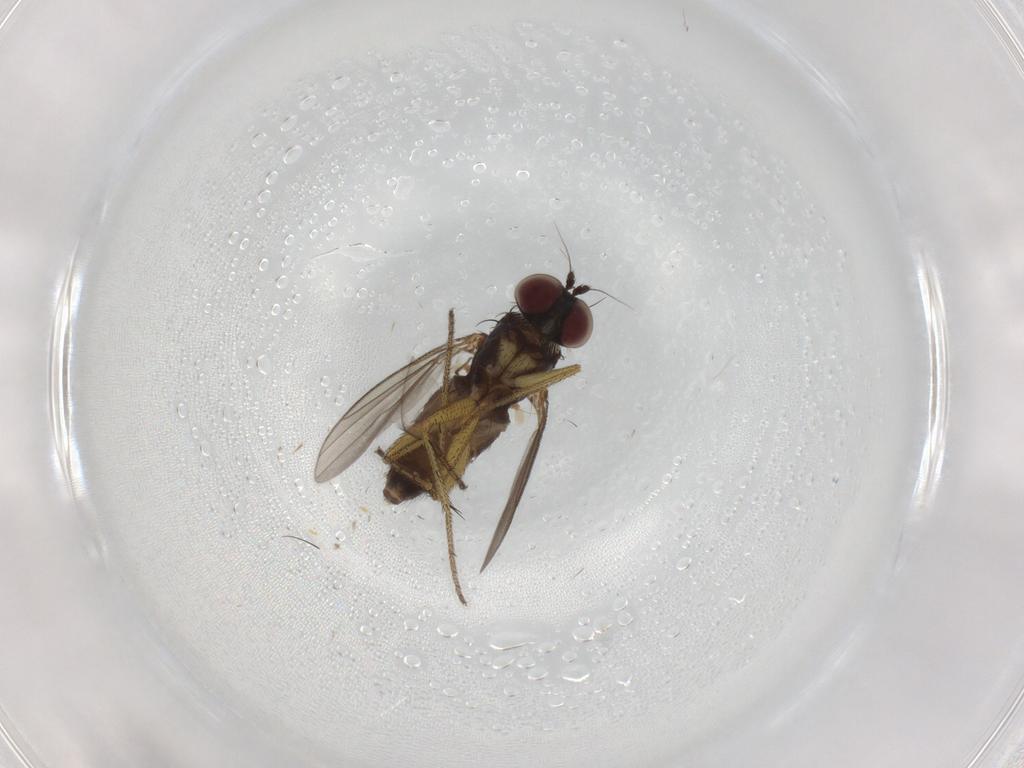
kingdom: Animalia
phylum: Arthropoda
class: Insecta
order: Diptera
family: Chironomidae
